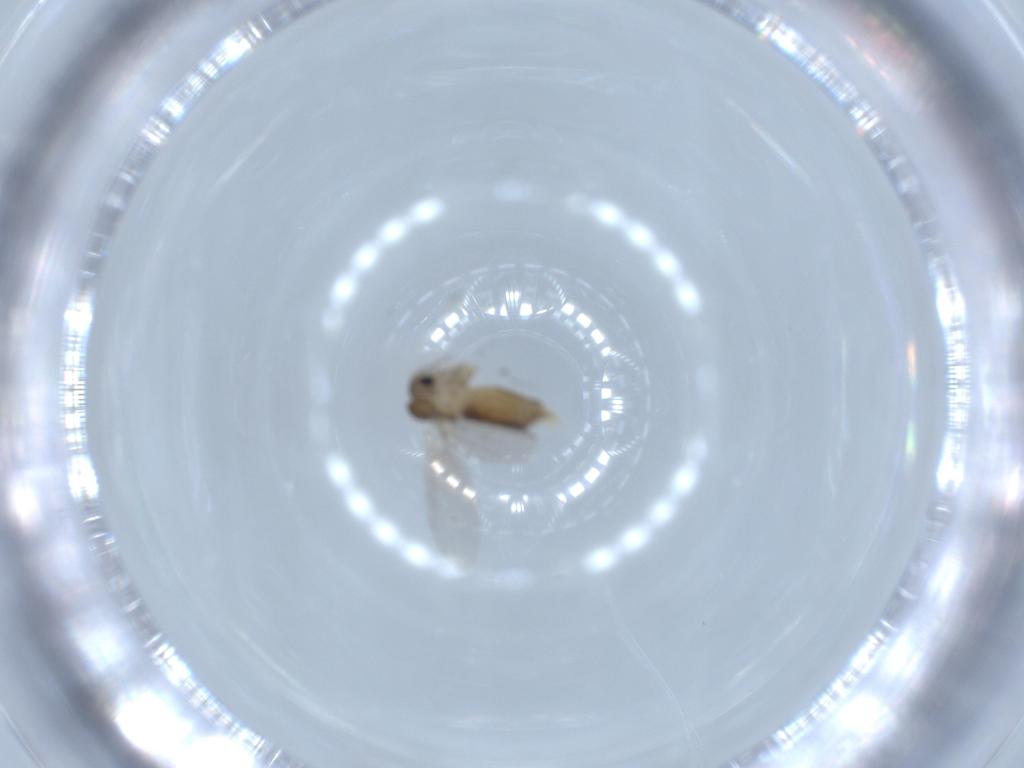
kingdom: Animalia
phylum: Arthropoda
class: Insecta
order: Diptera
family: Psychodidae
